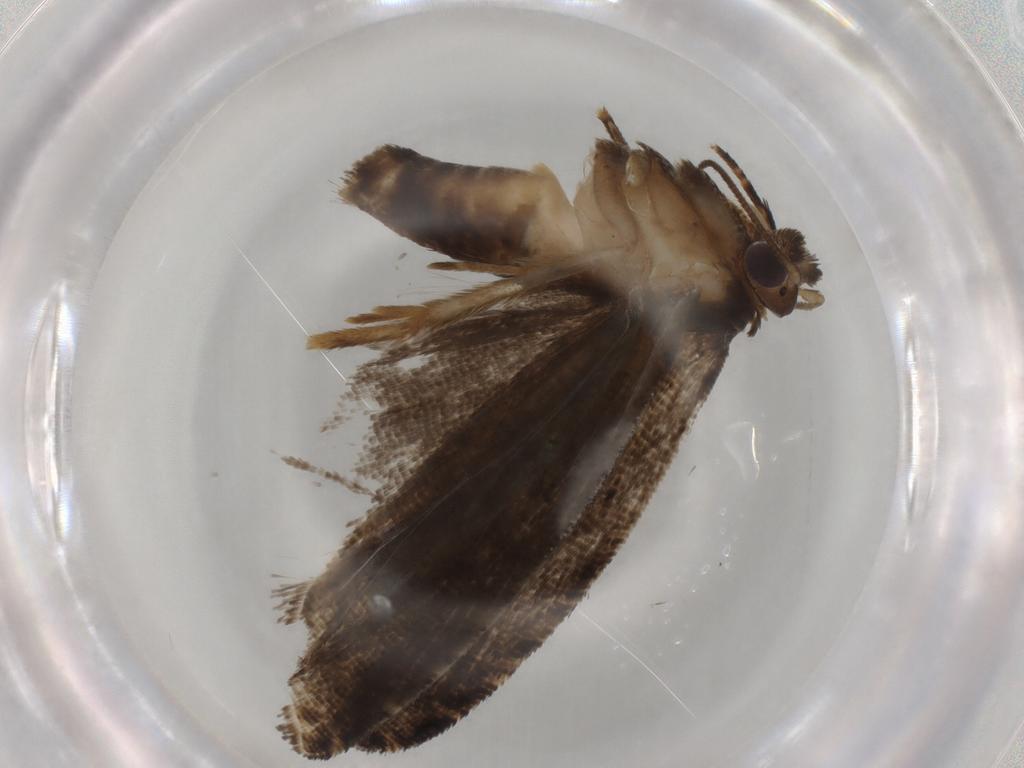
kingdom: Animalia
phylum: Arthropoda
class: Insecta
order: Lepidoptera
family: Tortricidae
